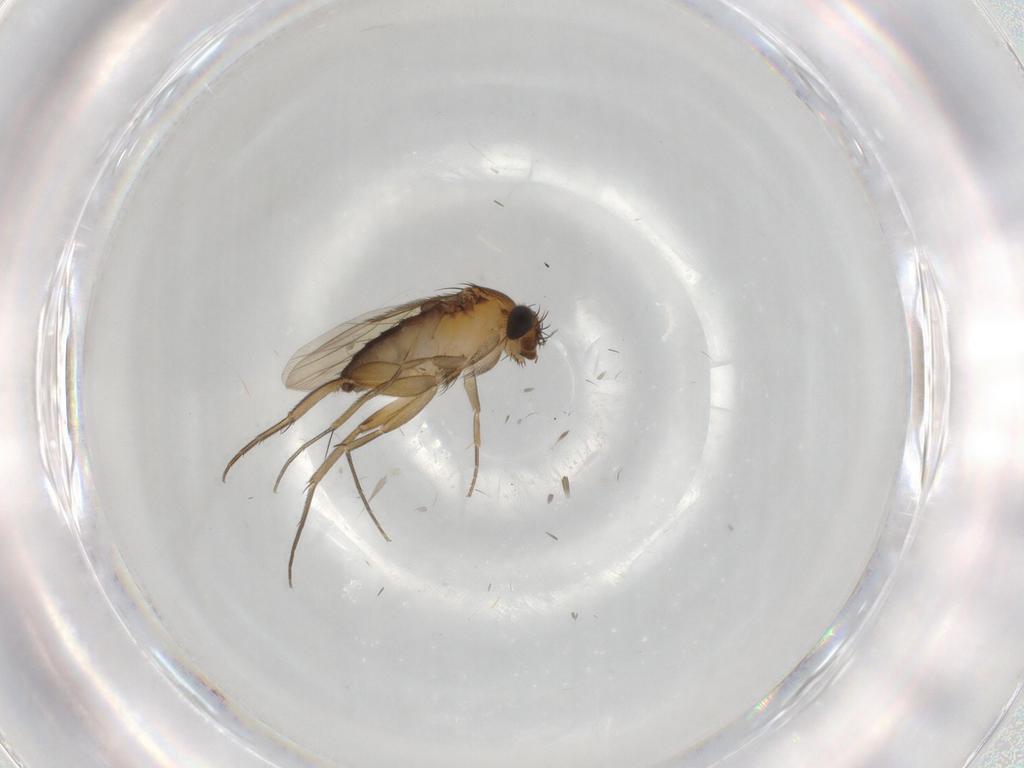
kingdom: Animalia
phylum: Arthropoda
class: Insecta
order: Diptera
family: Phoridae
